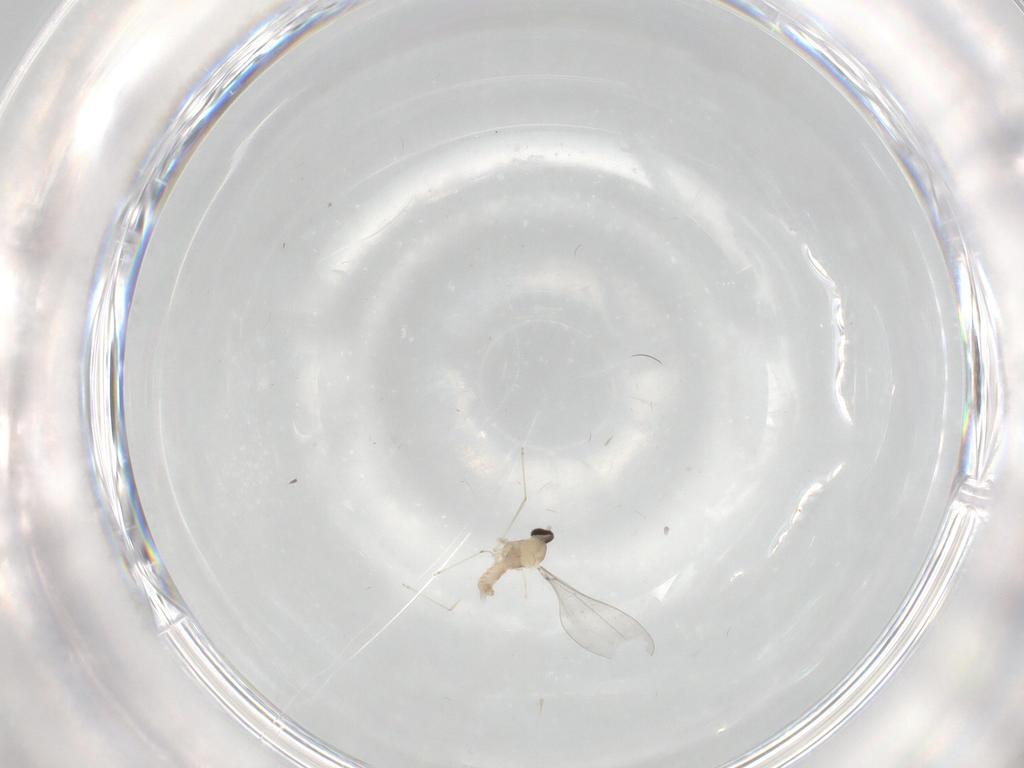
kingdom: Animalia
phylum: Arthropoda
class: Insecta
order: Diptera
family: Cecidomyiidae
